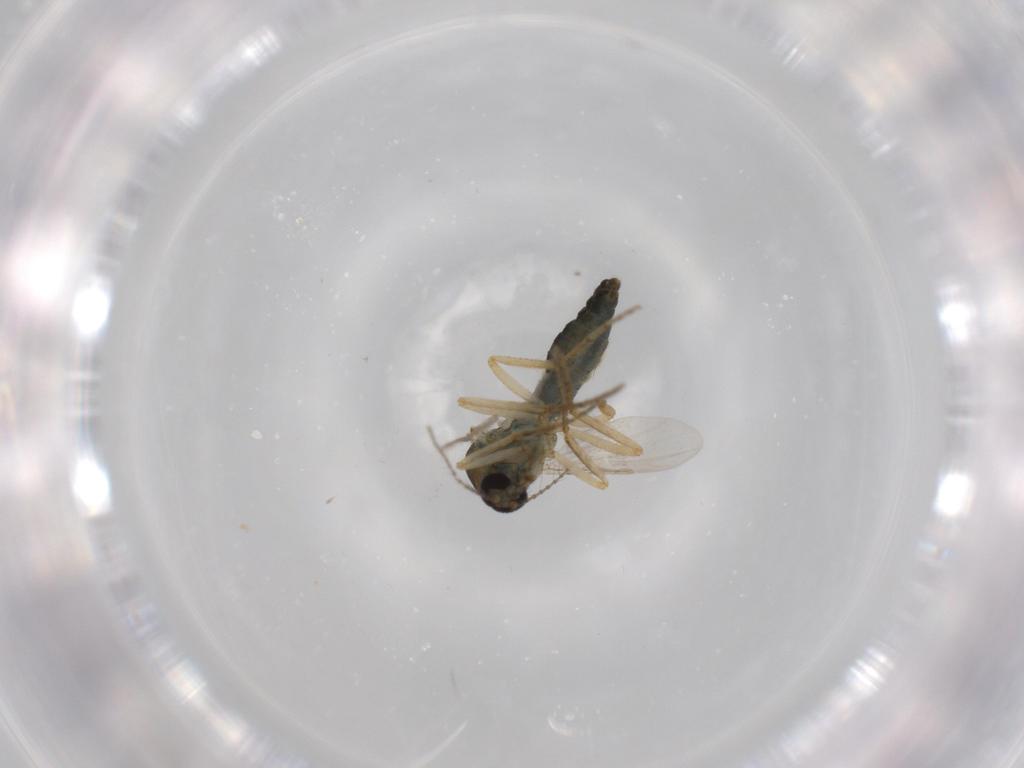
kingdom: Animalia
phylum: Arthropoda
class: Insecta
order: Diptera
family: Ceratopogonidae
